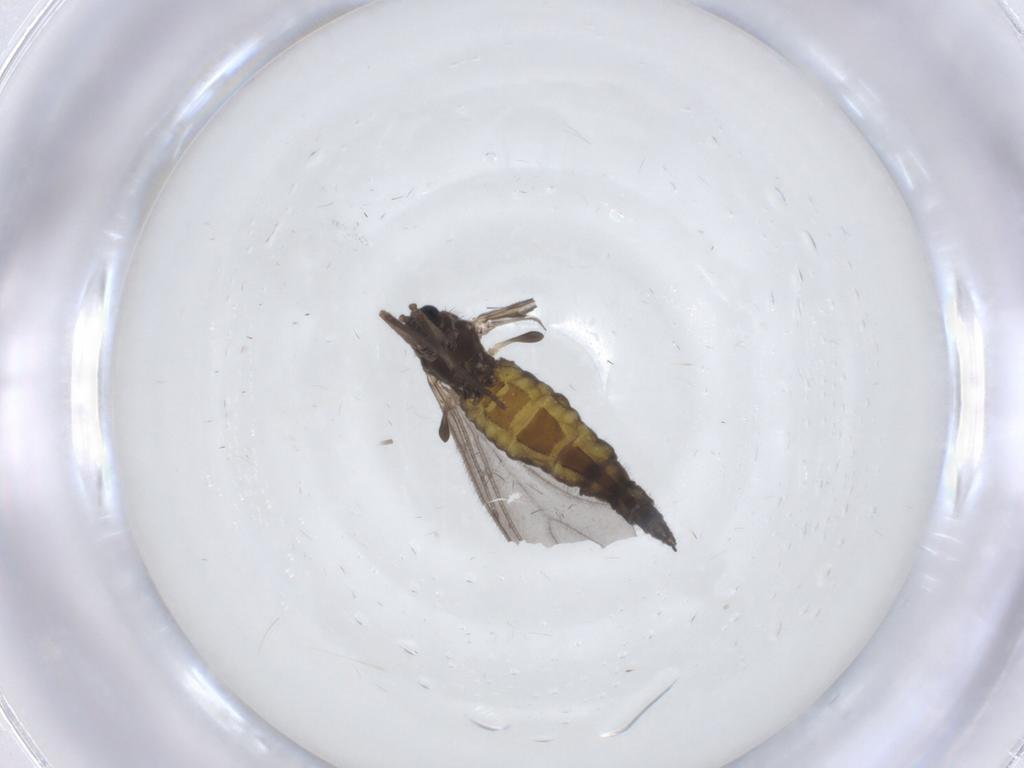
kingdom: Animalia
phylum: Arthropoda
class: Insecta
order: Diptera
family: Sciaridae
